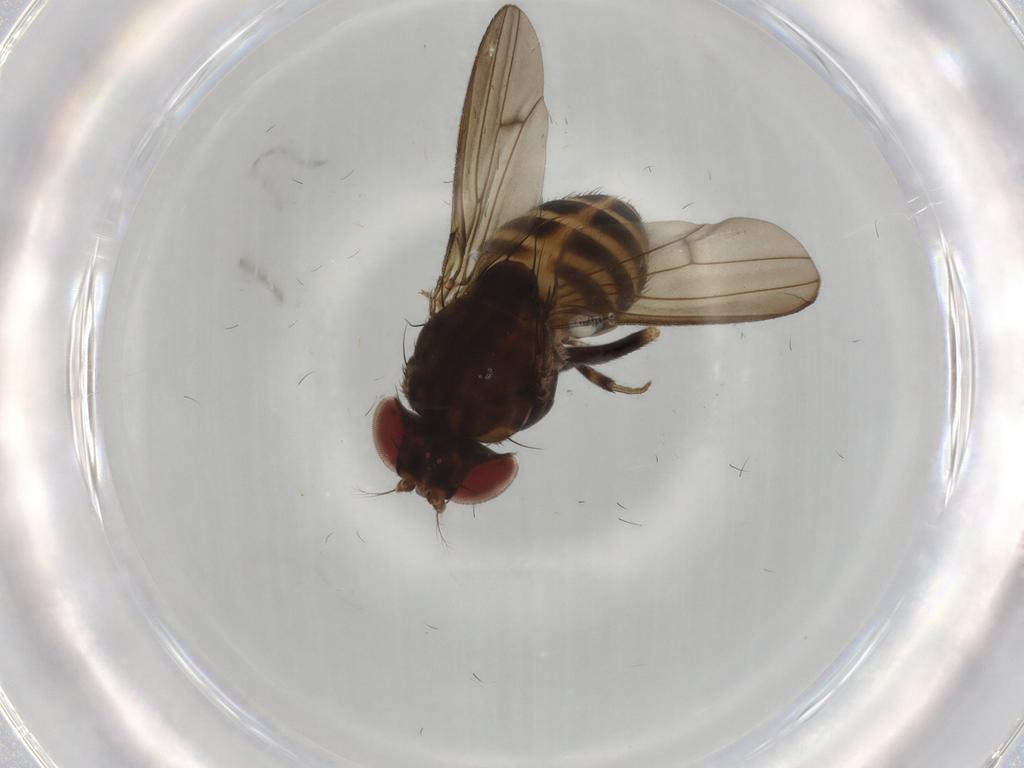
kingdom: Animalia
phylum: Arthropoda
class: Insecta
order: Diptera
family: Drosophilidae
